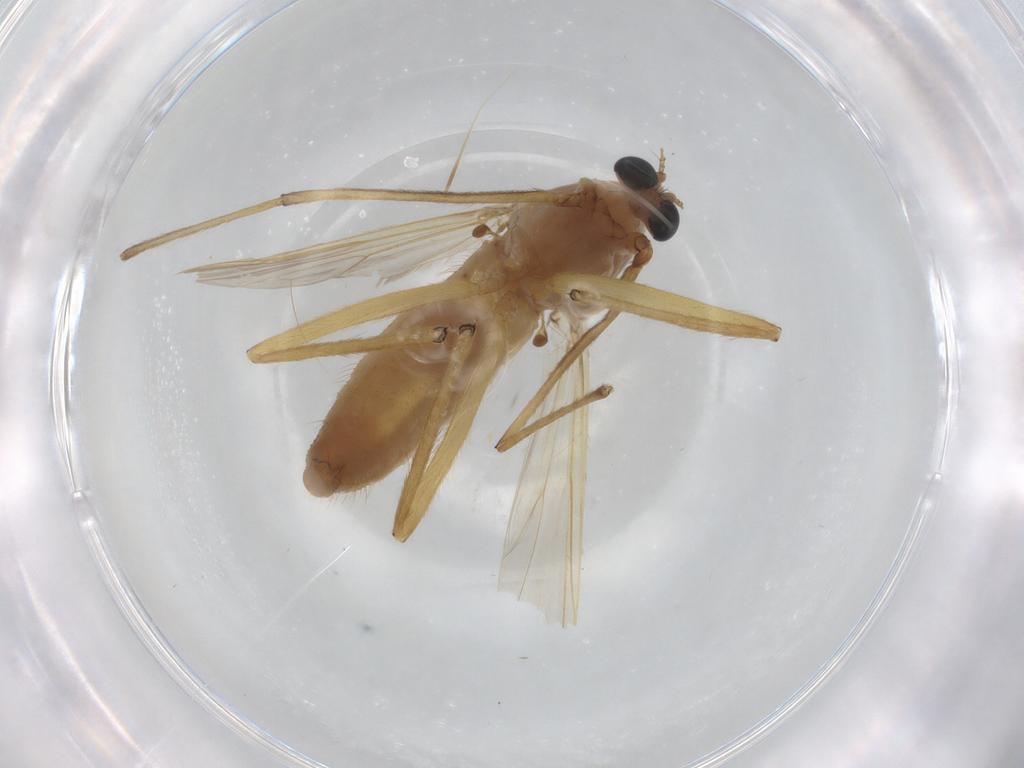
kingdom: Animalia
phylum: Arthropoda
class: Insecta
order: Diptera
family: Chironomidae
